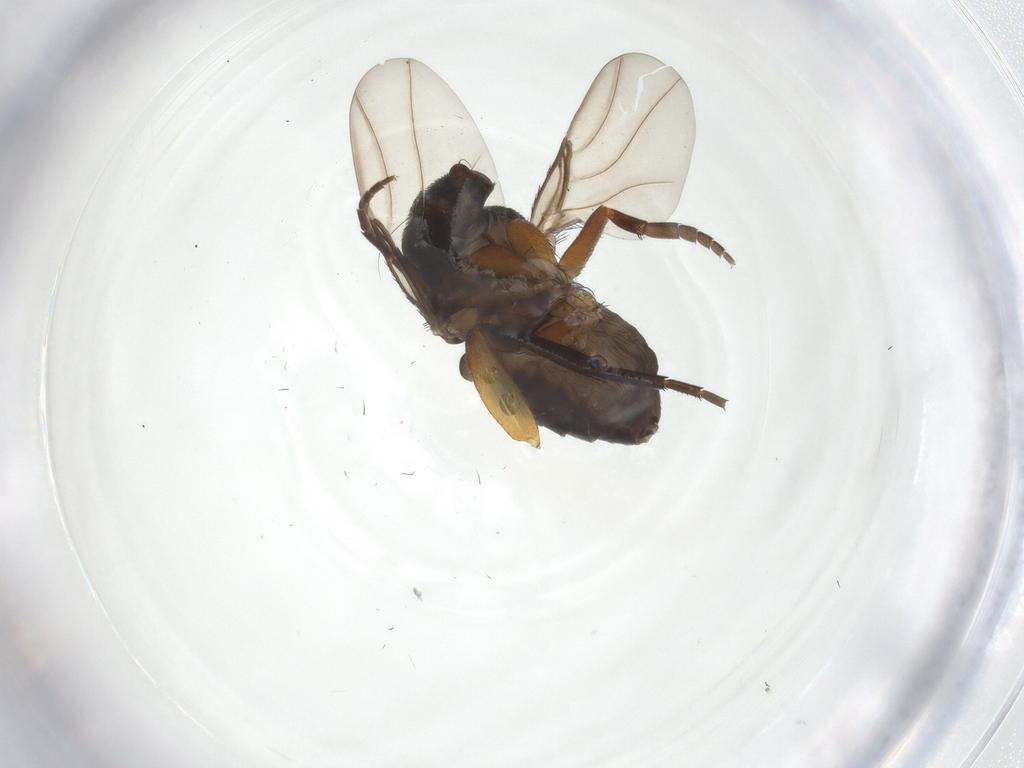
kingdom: Animalia
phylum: Arthropoda
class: Insecta
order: Diptera
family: Phoridae
